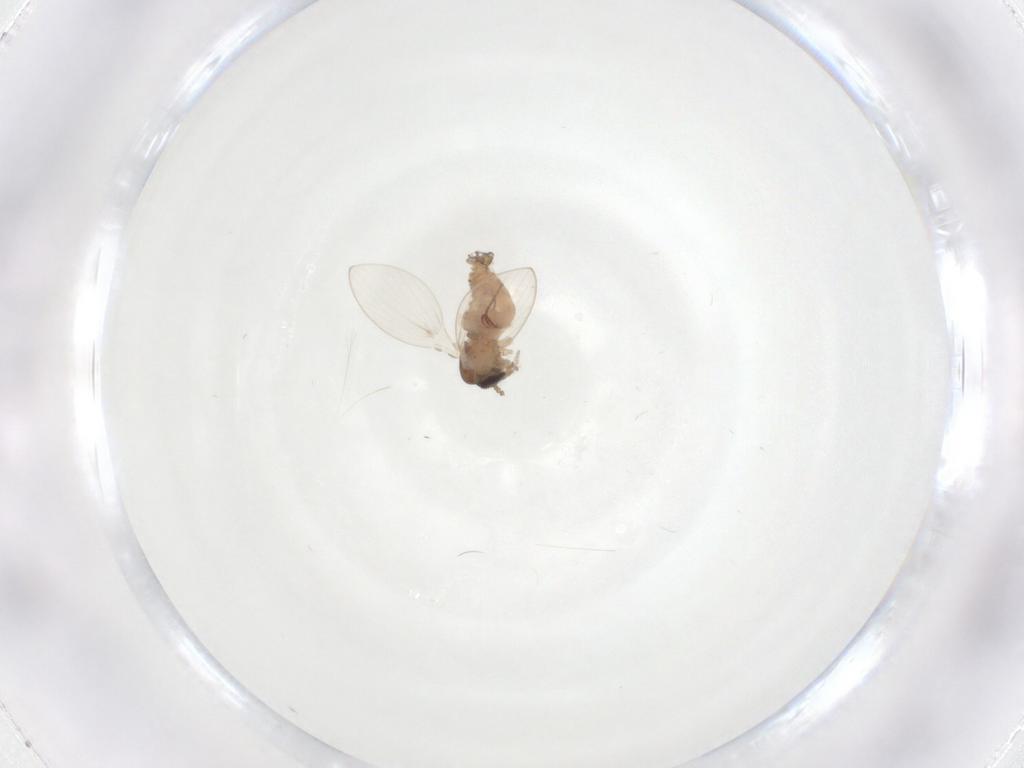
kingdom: Animalia
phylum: Arthropoda
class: Insecta
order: Diptera
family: Psychodidae
